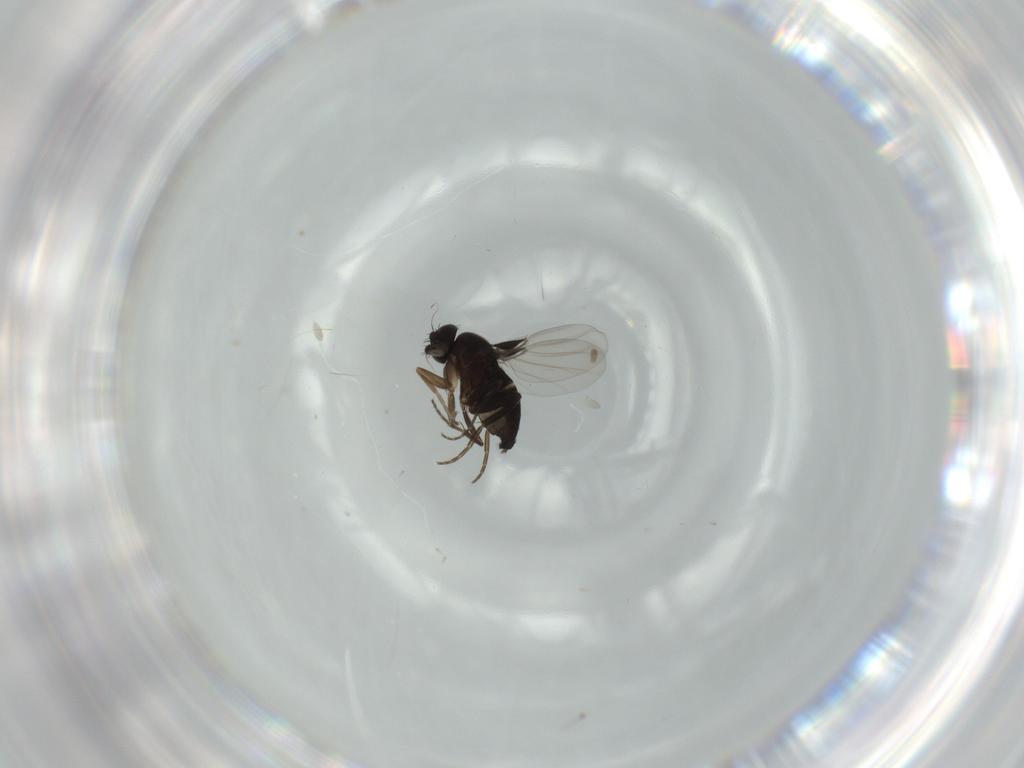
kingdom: Animalia
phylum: Arthropoda
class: Insecta
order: Diptera
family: Phoridae
